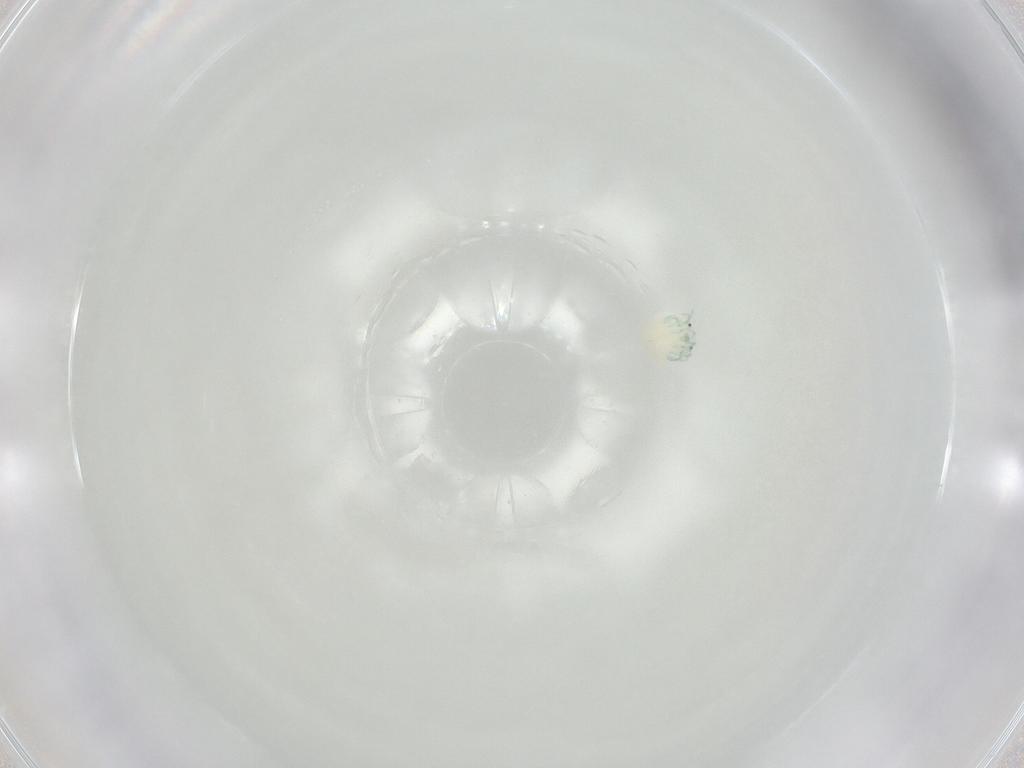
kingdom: Animalia
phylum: Arthropoda
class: Arachnida
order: Trombidiformes
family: Arrenuridae
